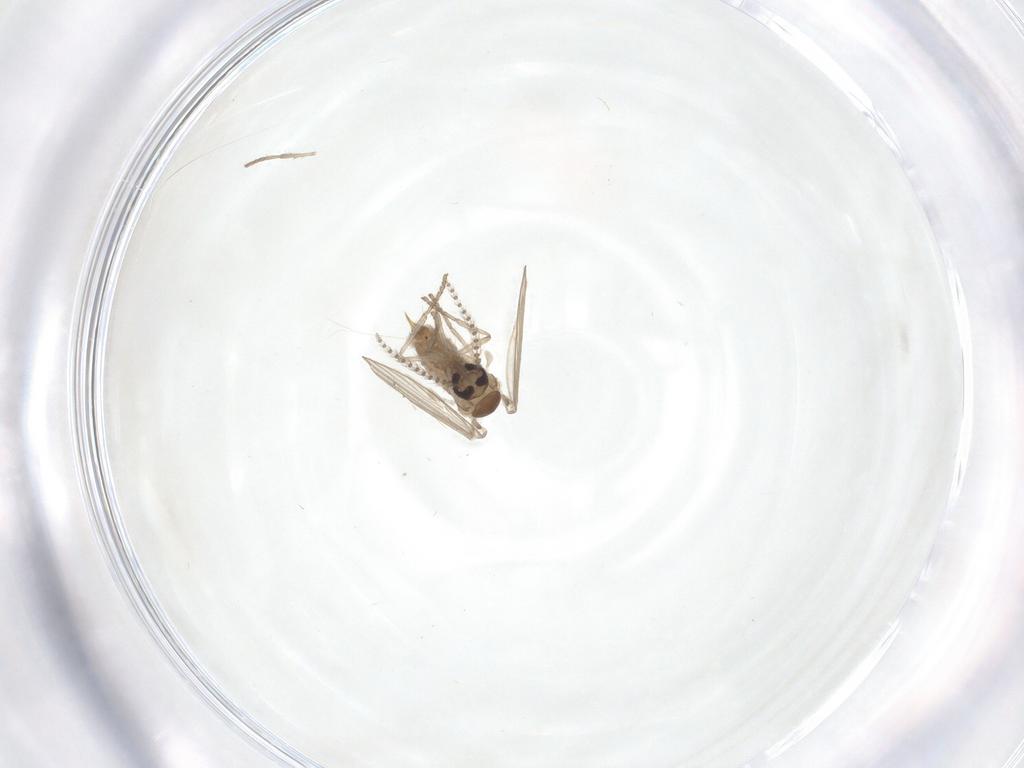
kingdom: Animalia
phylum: Arthropoda
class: Insecta
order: Diptera
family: Psychodidae
